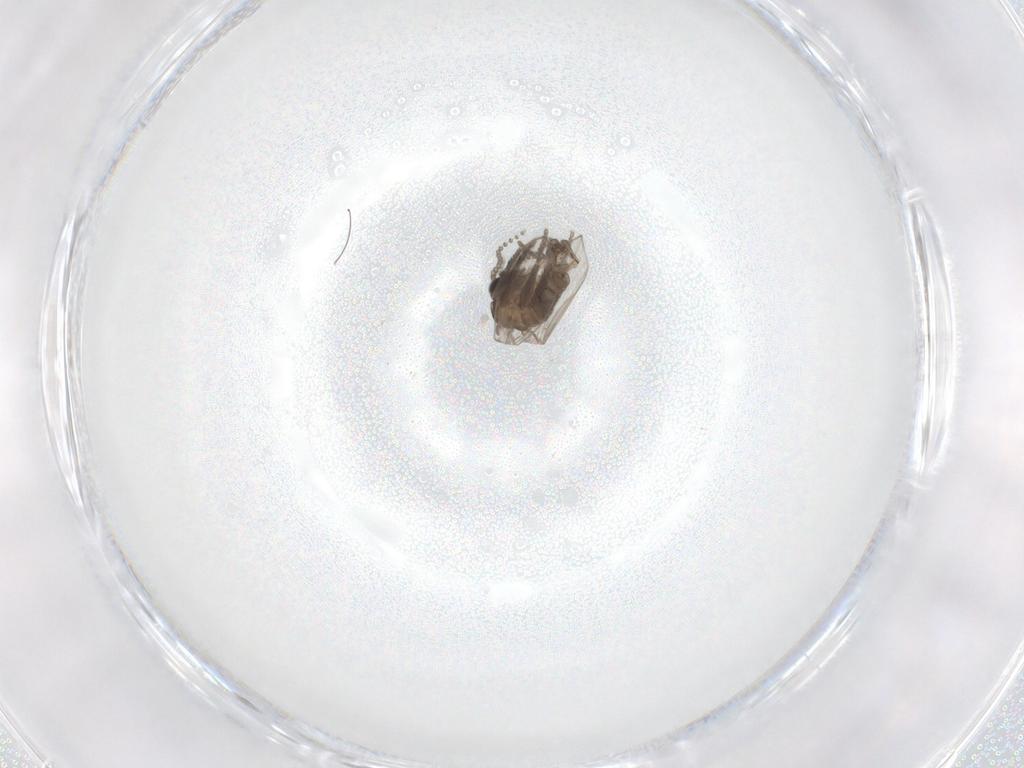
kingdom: Animalia
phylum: Arthropoda
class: Insecta
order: Diptera
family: Psychodidae
